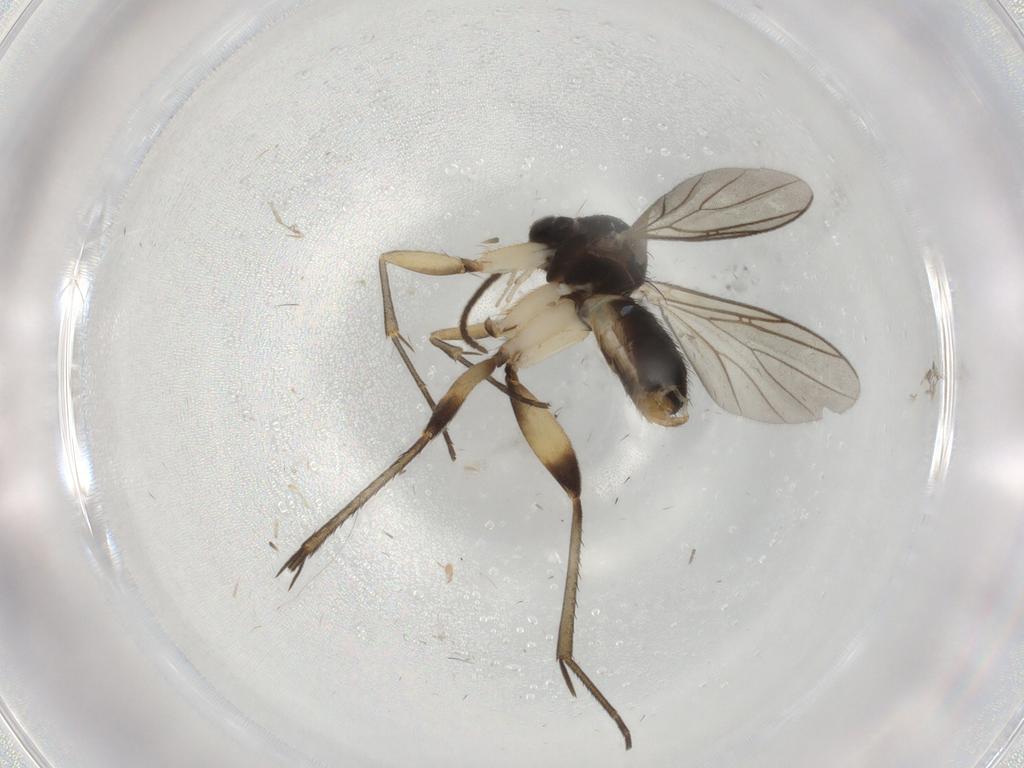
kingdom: Animalia
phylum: Arthropoda
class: Insecta
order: Diptera
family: Mycetophilidae
